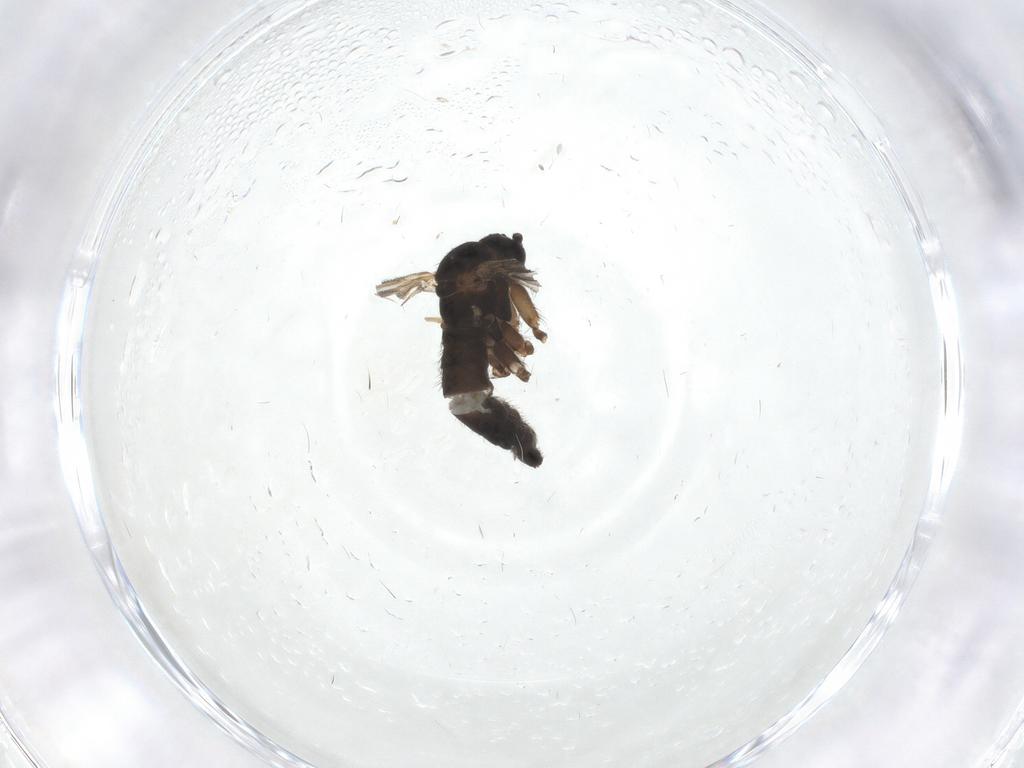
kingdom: Animalia
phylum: Arthropoda
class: Insecta
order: Diptera
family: Sciaridae
